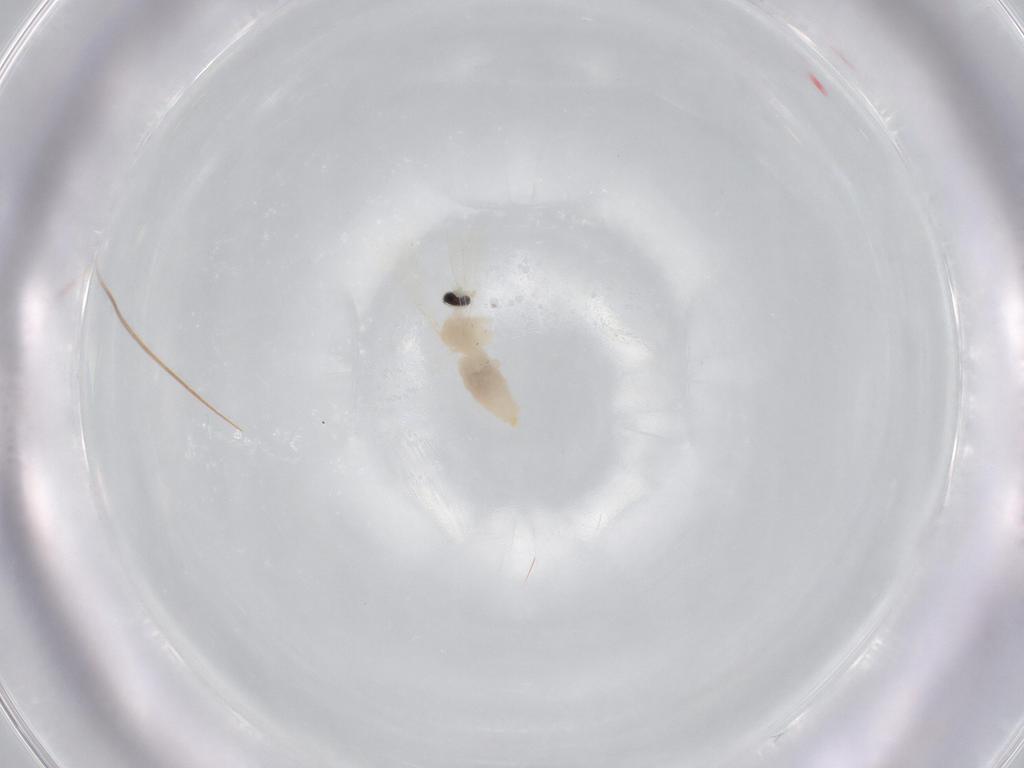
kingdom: Animalia
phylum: Arthropoda
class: Insecta
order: Diptera
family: Cecidomyiidae
